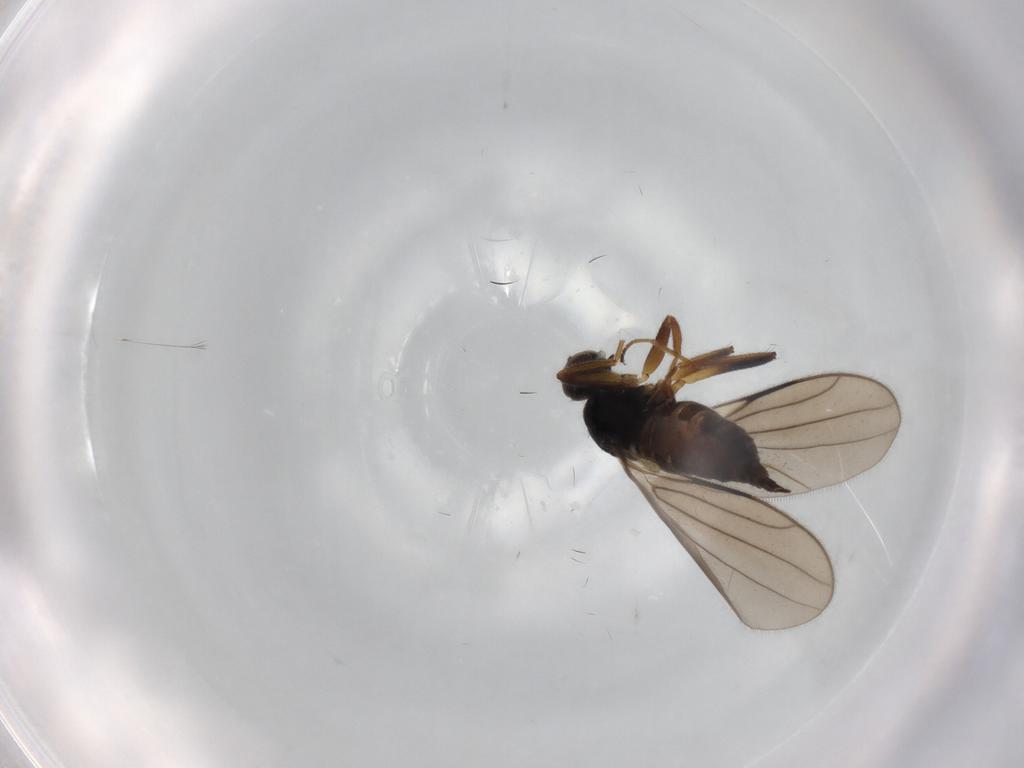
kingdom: Animalia
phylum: Arthropoda
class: Insecta
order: Diptera
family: Hybotidae
